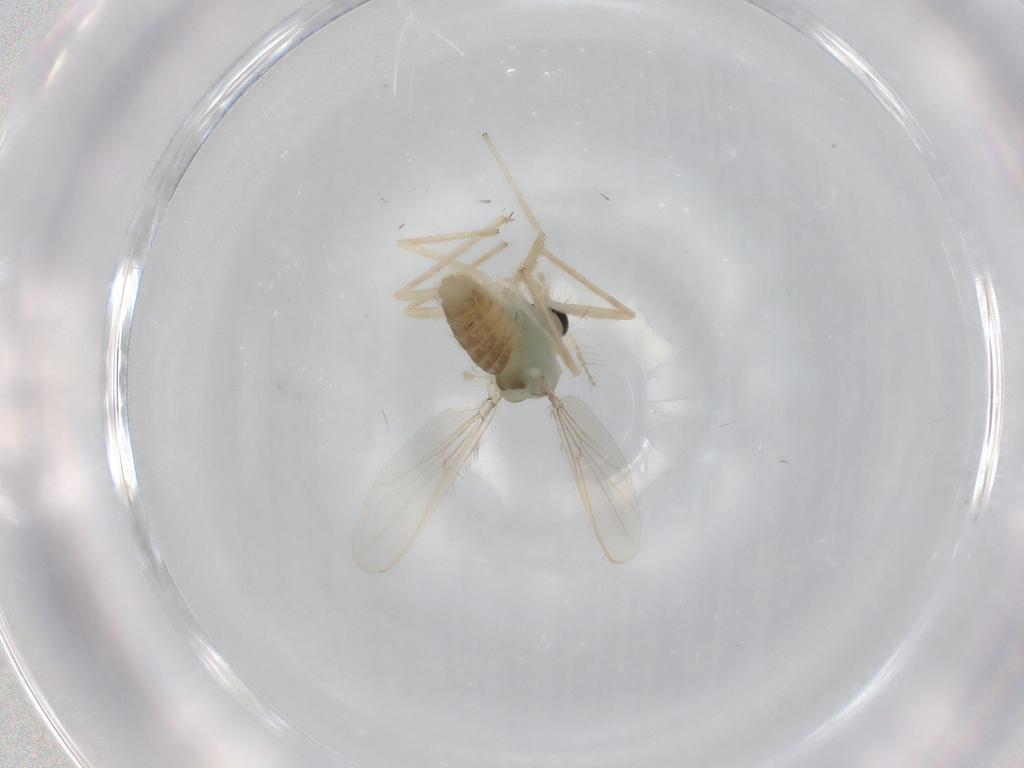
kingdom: Animalia
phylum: Arthropoda
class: Insecta
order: Diptera
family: Chironomidae
